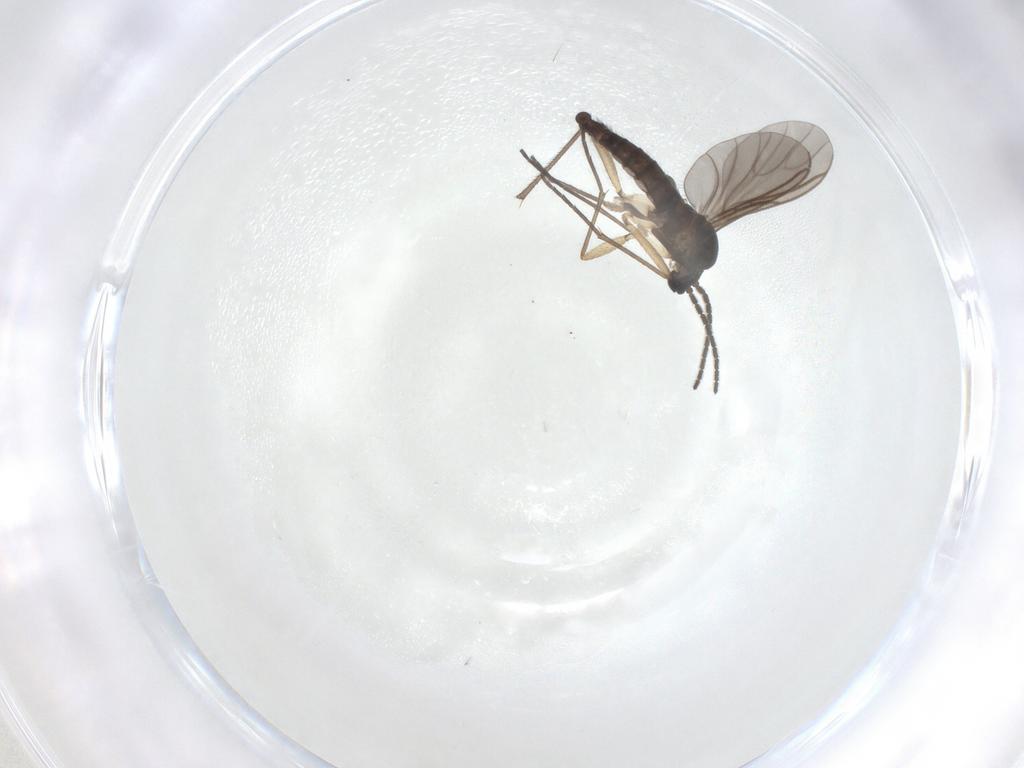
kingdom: Animalia
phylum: Arthropoda
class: Insecta
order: Diptera
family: Sciaridae
